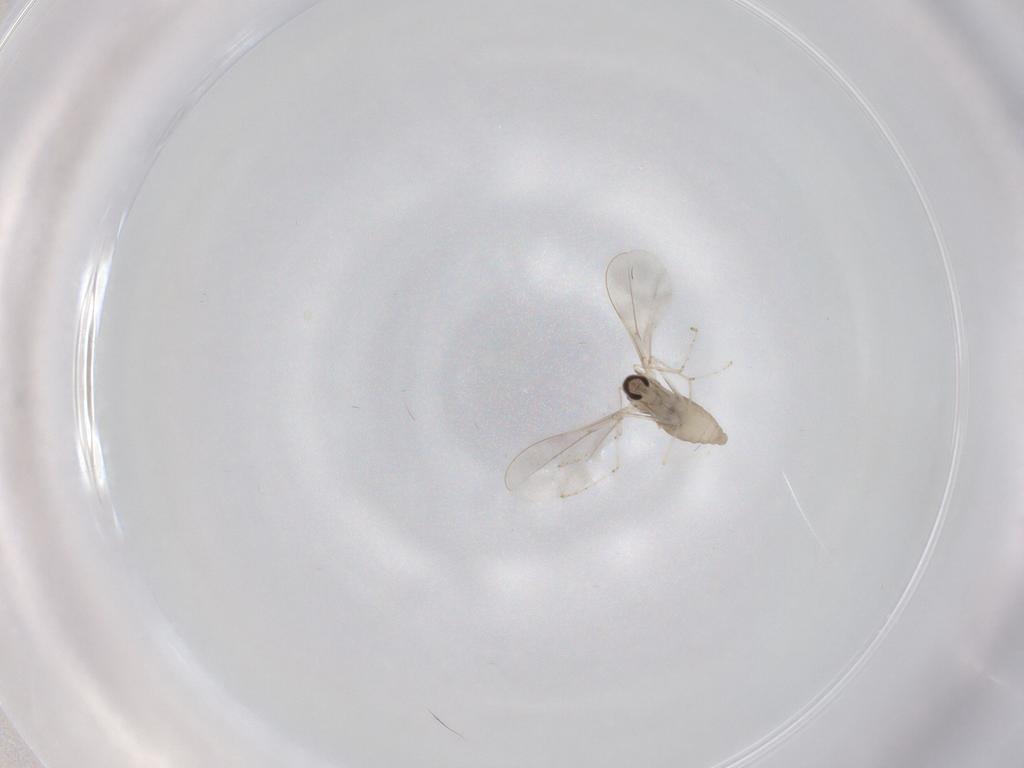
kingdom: Animalia
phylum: Arthropoda
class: Insecta
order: Diptera
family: Cecidomyiidae
